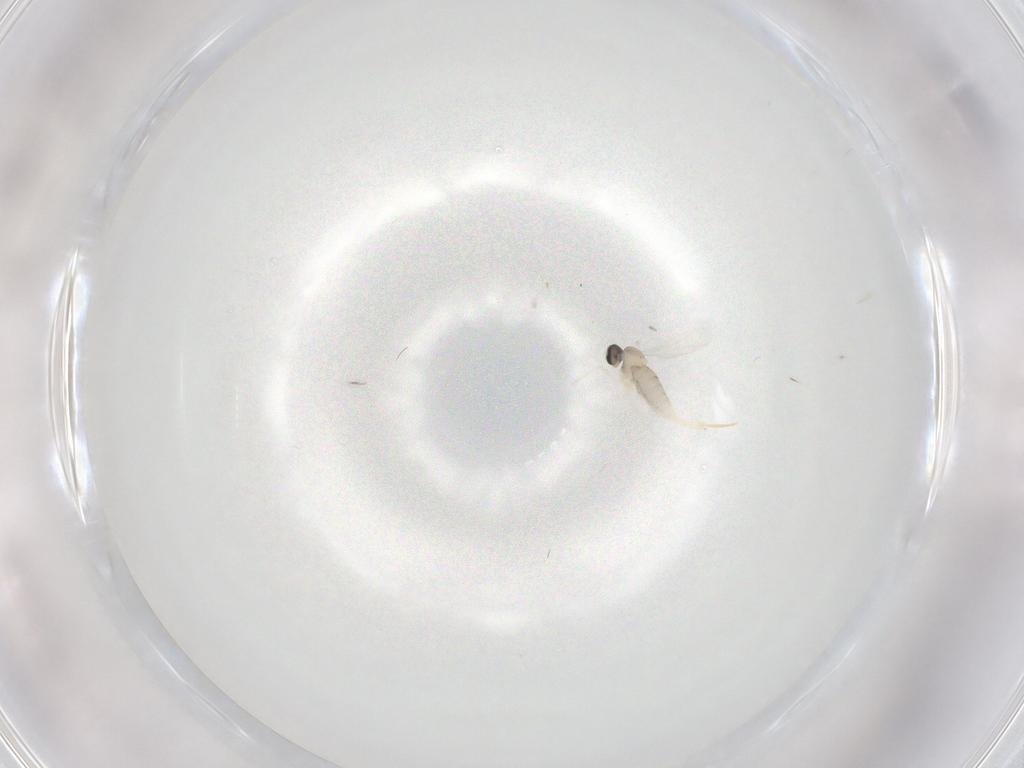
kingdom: Animalia
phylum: Arthropoda
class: Insecta
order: Diptera
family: Cecidomyiidae
